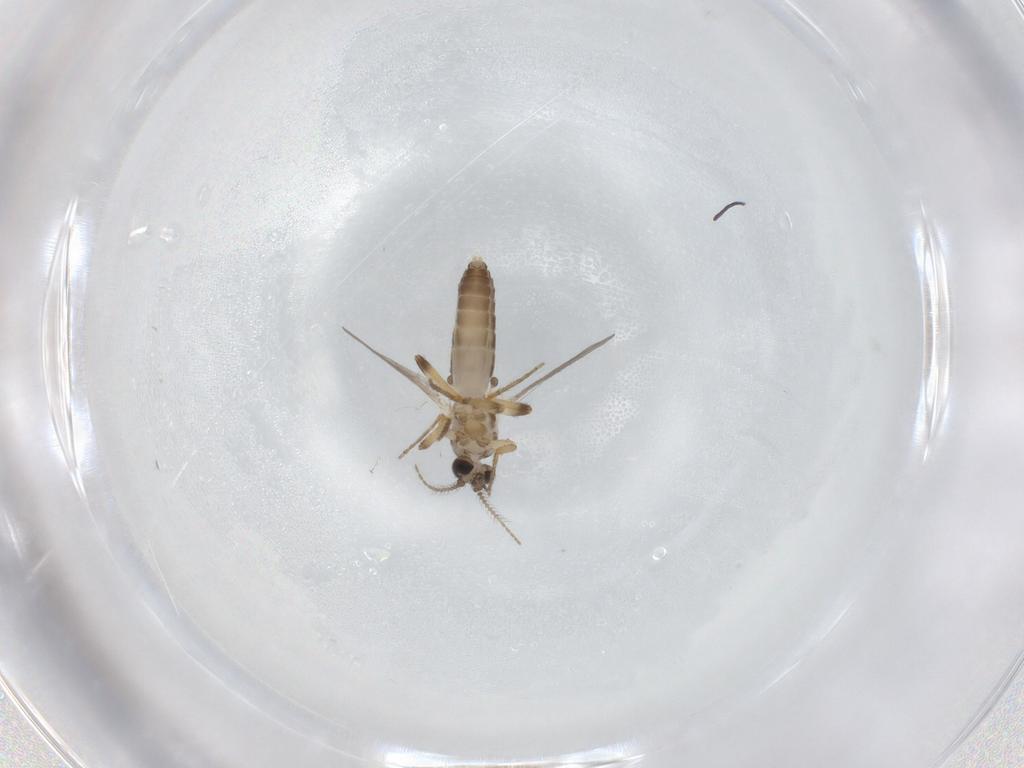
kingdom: Animalia
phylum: Arthropoda
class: Insecta
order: Diptera
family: Ceratopogonidae
